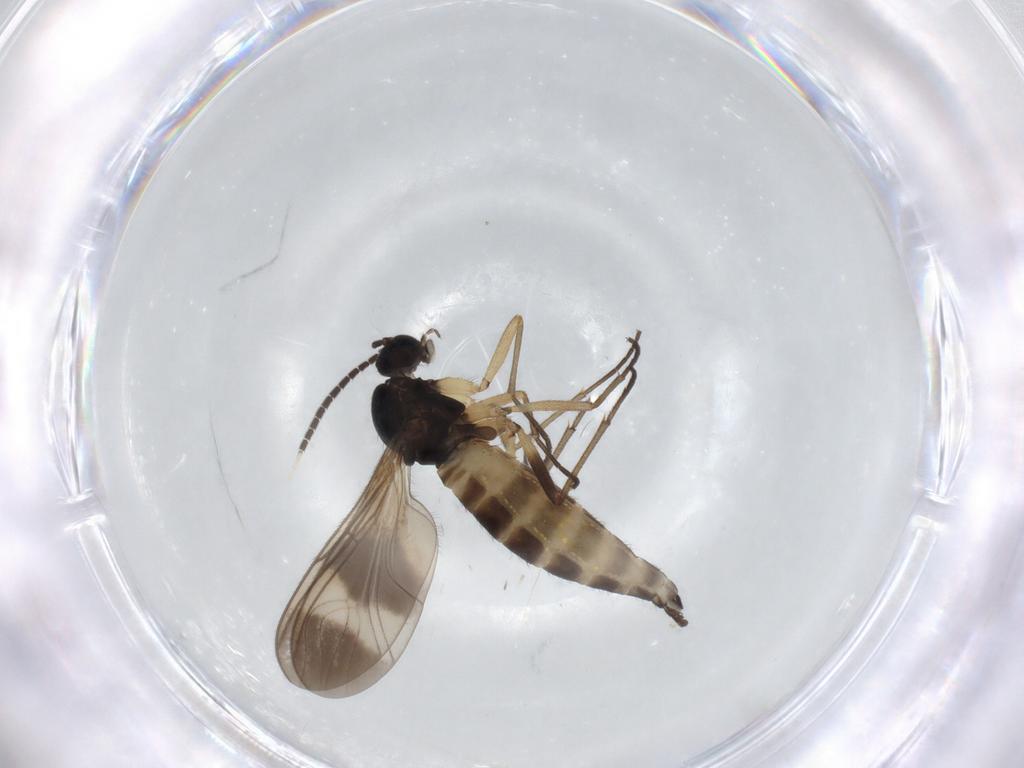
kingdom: Animalia
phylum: Arthropoda
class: Insecta
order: Diptera
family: Sciaridae
